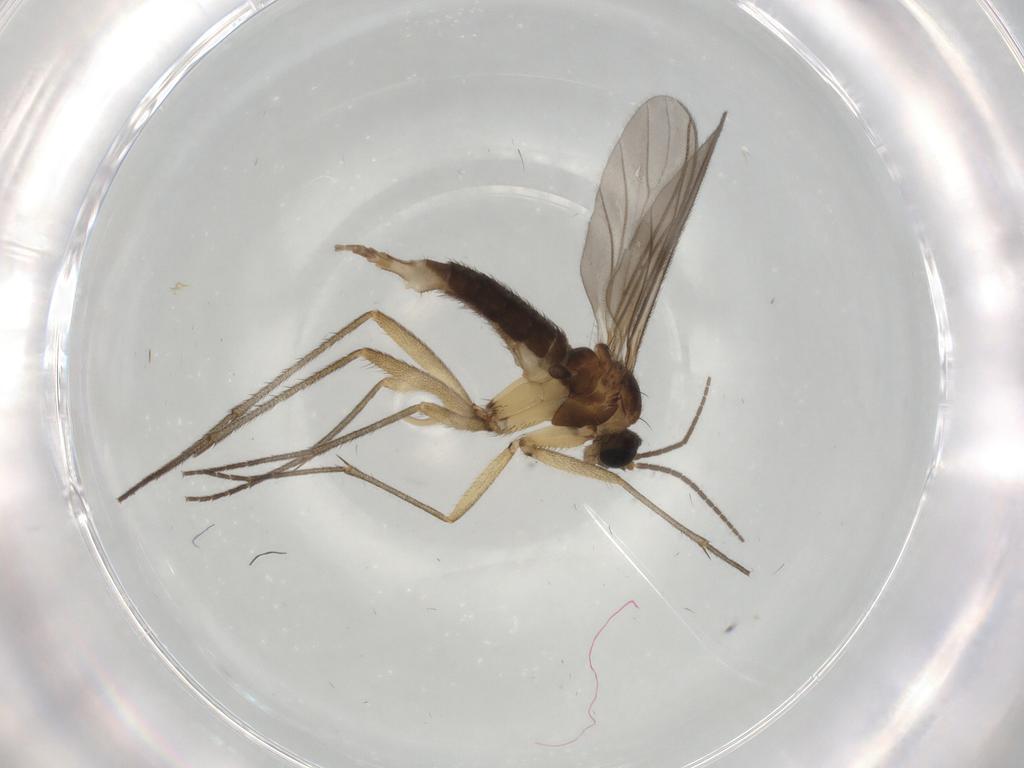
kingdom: Animalia
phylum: Arthropoda
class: Insecta
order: Diptera
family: Sciaridae
